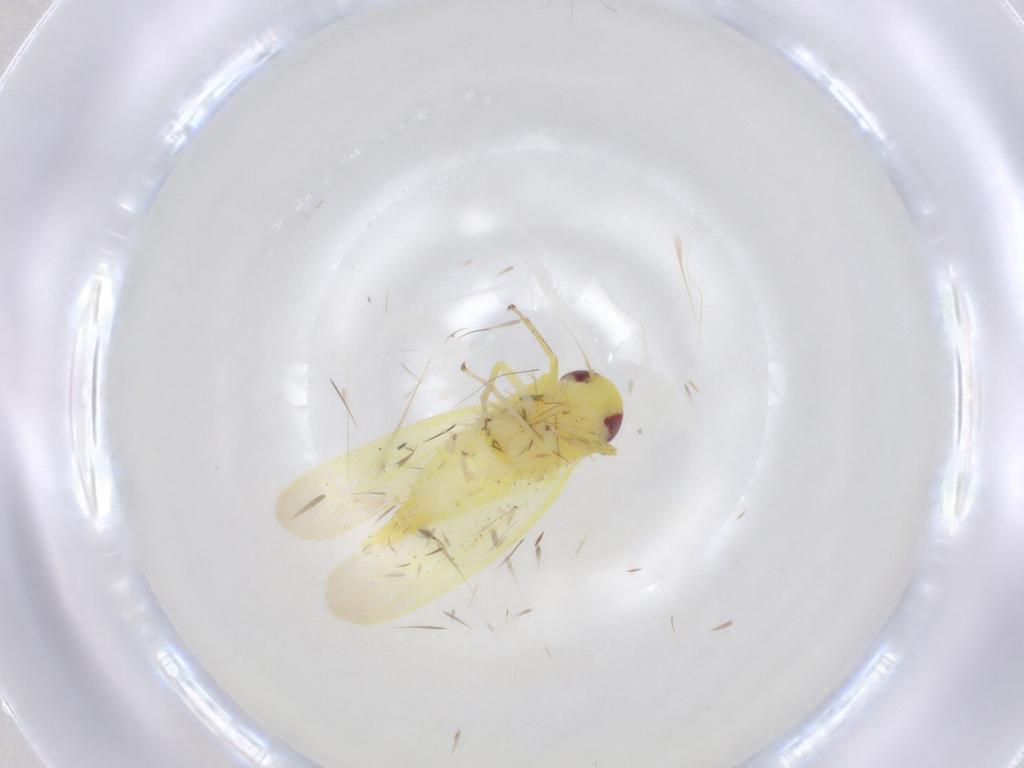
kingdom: Animalia
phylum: Arthropoda
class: Insecta
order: Hemiptera
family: Cicadellidae
